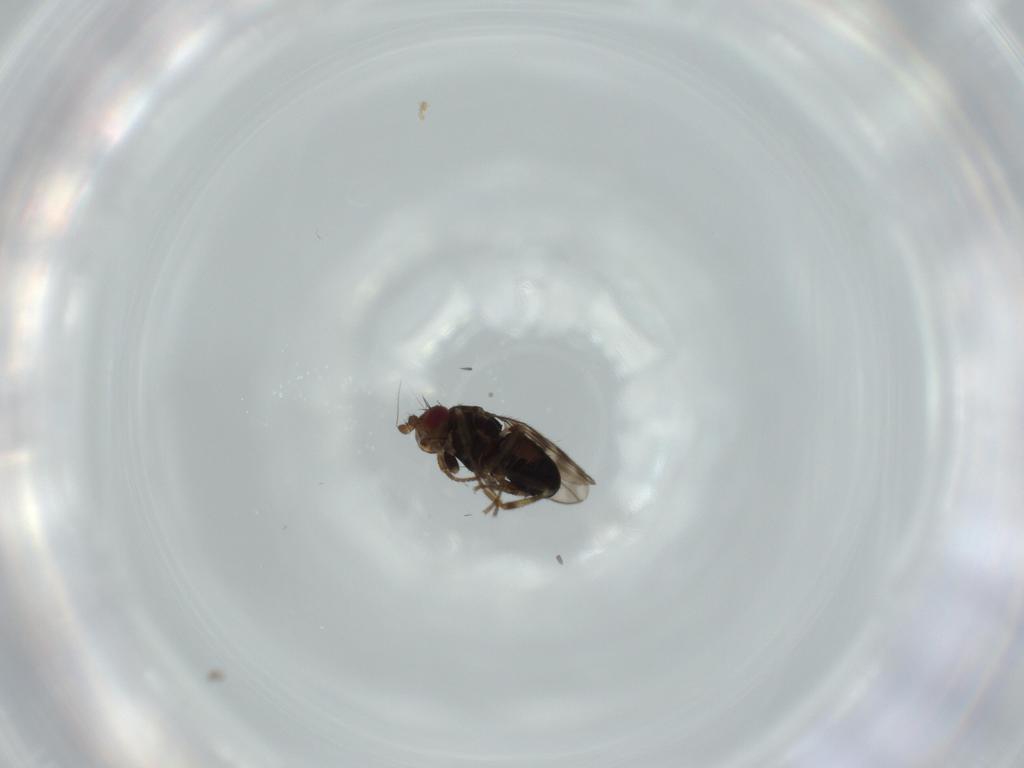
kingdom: Animalia
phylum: Arthropoda
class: Insecta
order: Diptera
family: Sphaeroceridae
